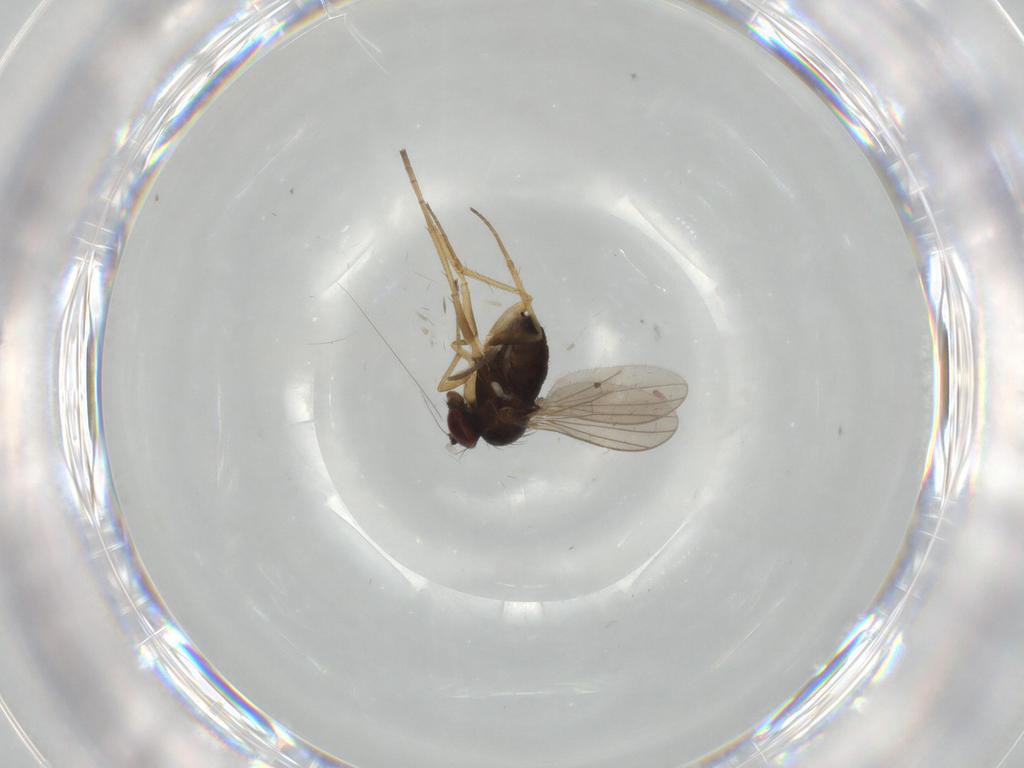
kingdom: Animalia
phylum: Arthropoda
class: Insecta
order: Diptera
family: Dolichopodidae
